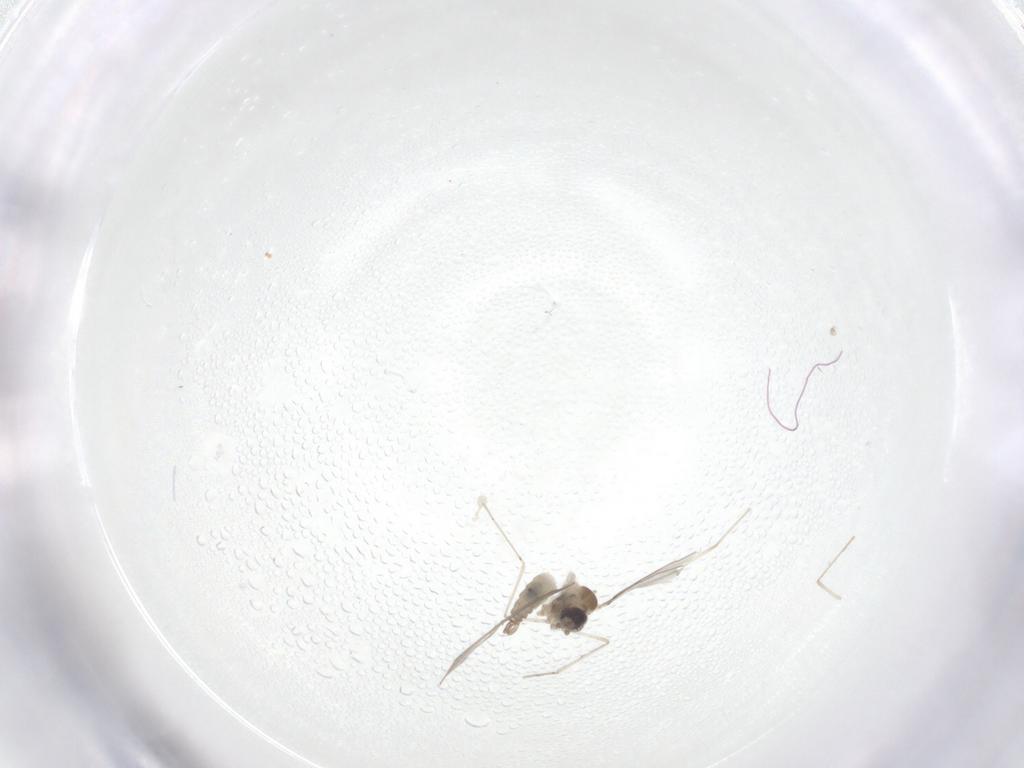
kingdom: Animalia
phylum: Arthropoda
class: Insecta
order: Diptera
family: Cecidomyiidae
